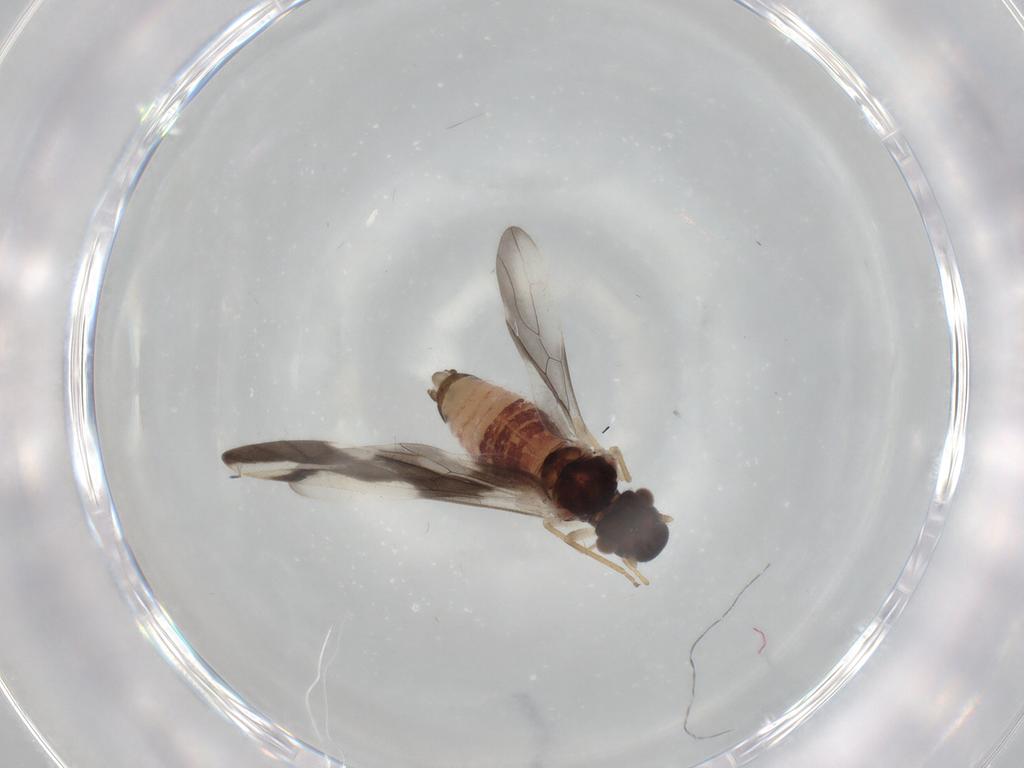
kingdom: Animalia
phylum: Arthropoda
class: Insecta
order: Psocodea
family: Caeciliusidae
